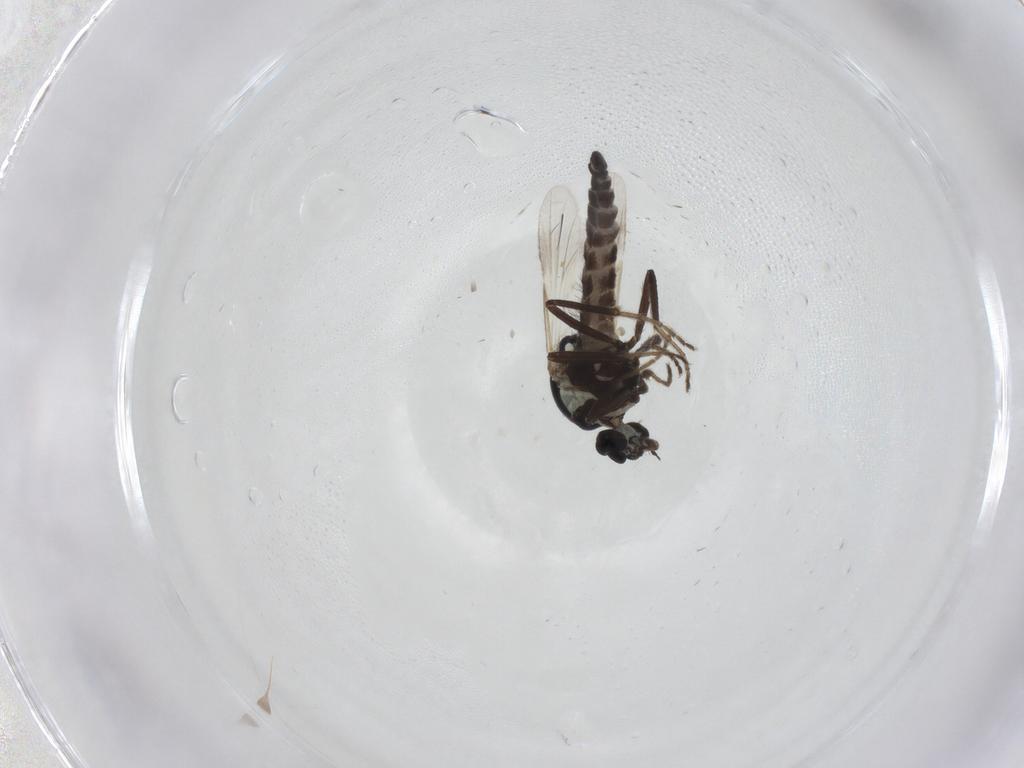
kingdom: Animalia
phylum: Arthropoda
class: Insecta
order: Diptera
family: Ceratopogonidae
